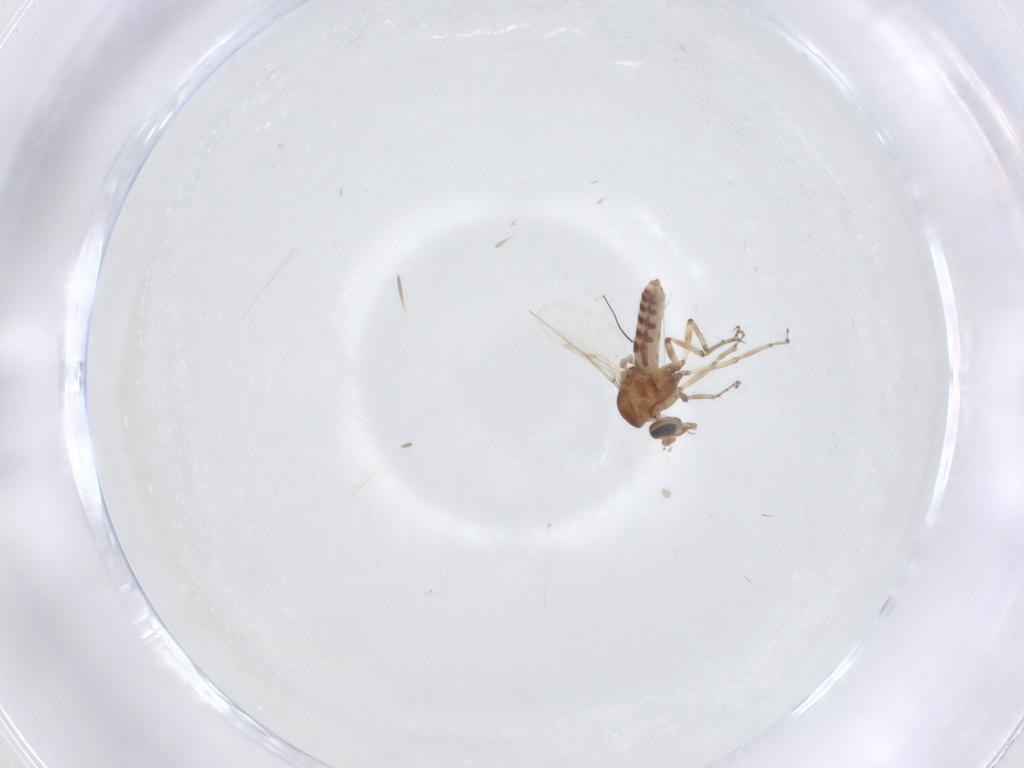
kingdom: Animalia
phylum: Arthropoda
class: Insecta
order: Diptera
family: Ceratopogonidae
